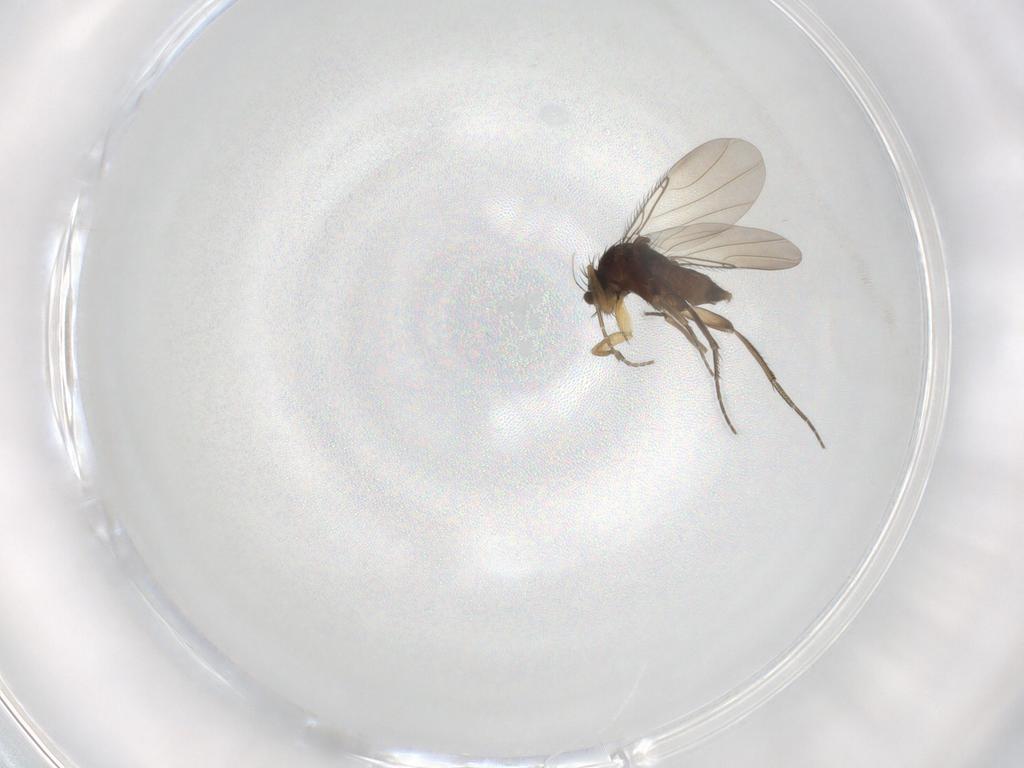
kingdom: Animalia
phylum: Arthropoda
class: Insecta
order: Diptera
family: Phoridae
